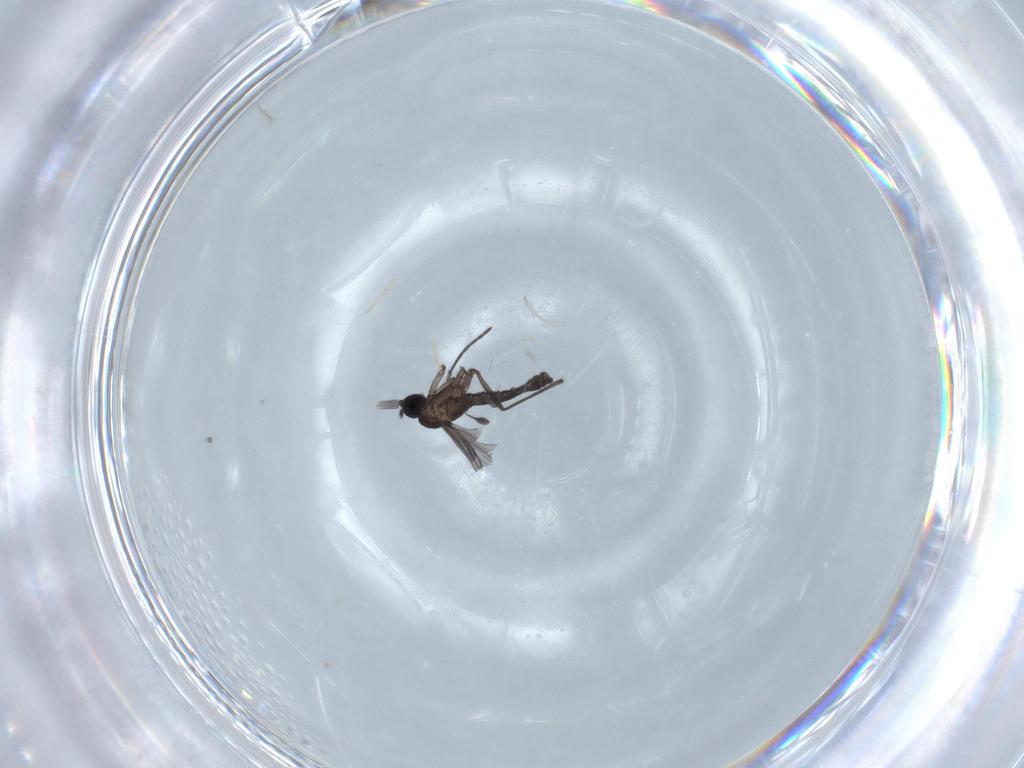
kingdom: Animalia
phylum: Arthropoda
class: Insecta
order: Diptera
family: Cecidomyiidae
